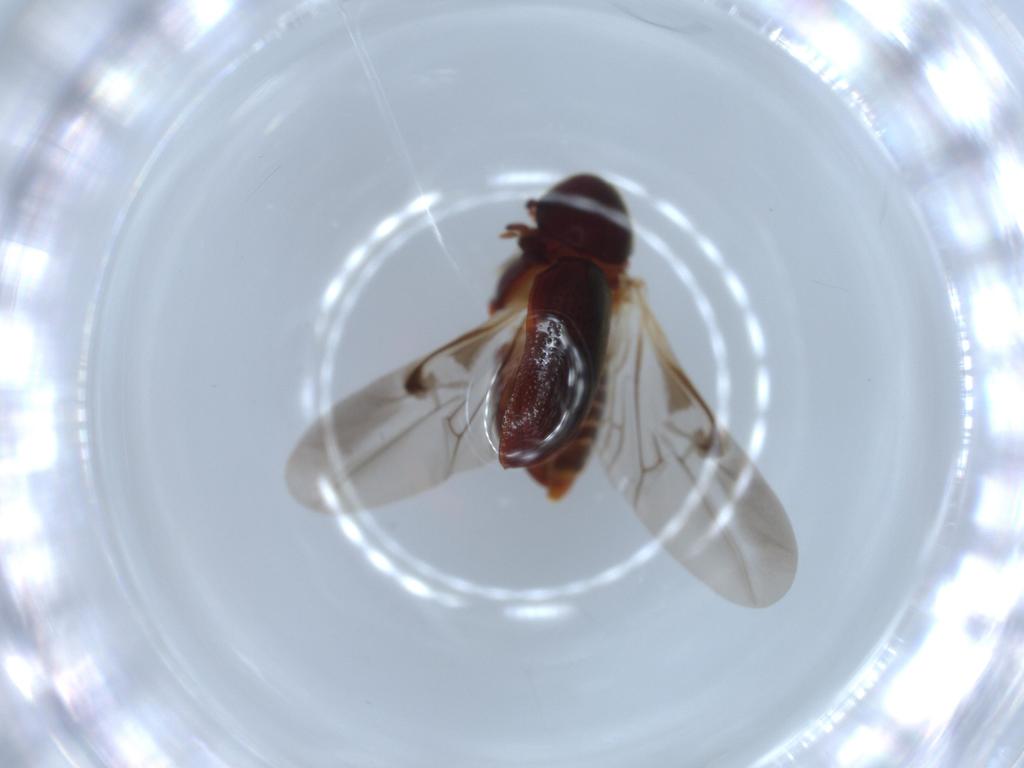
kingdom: Animalia
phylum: Arthropoda
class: Insecta
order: Coleoptera
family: Ptinidae
